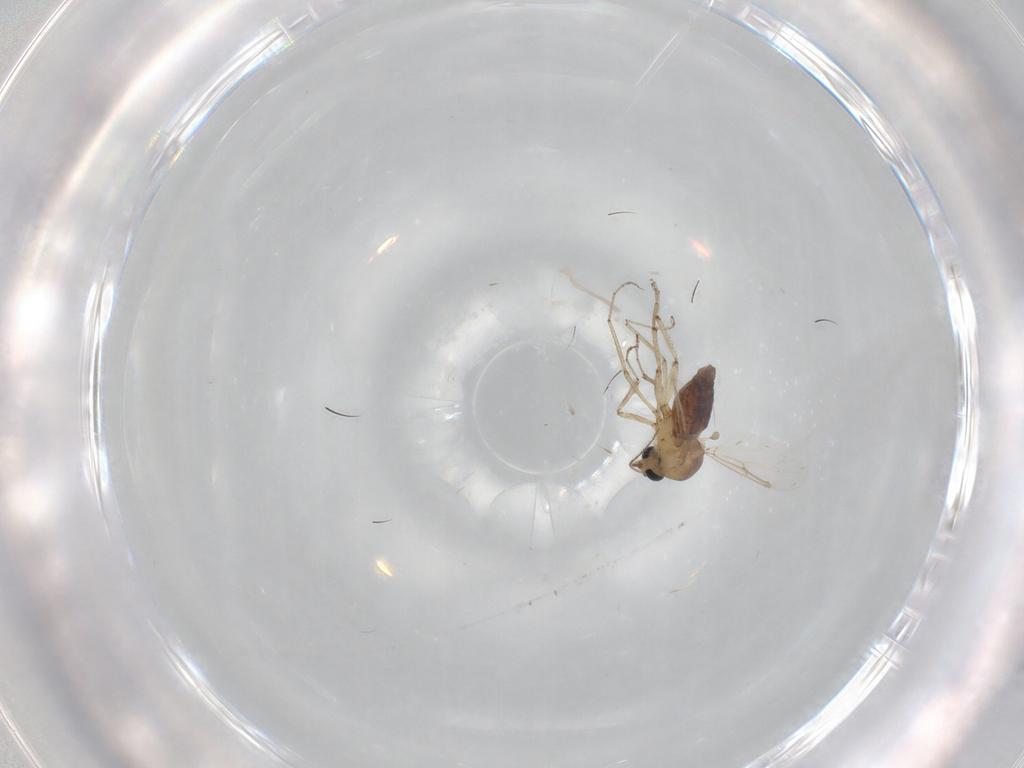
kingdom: Animalia
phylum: Arthropoda
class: Insecta
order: Diptera
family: Ceratopogonidae
